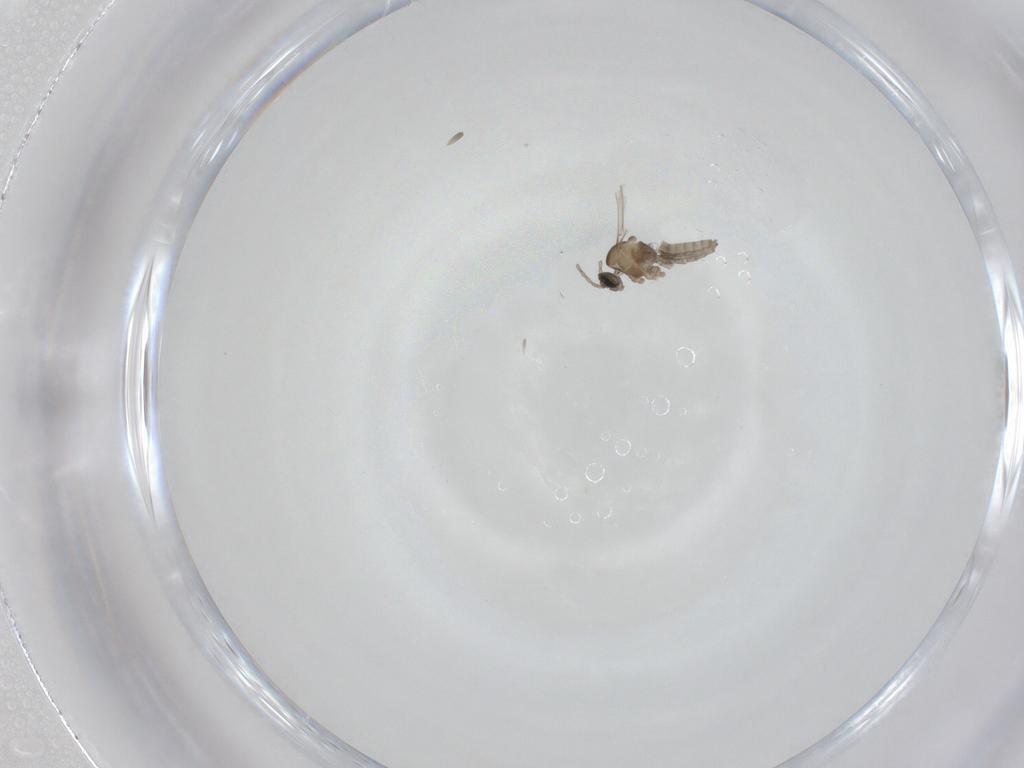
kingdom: Animalia
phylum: Arthropoda
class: Insecta
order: Diptera
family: Cecidomyiidae
